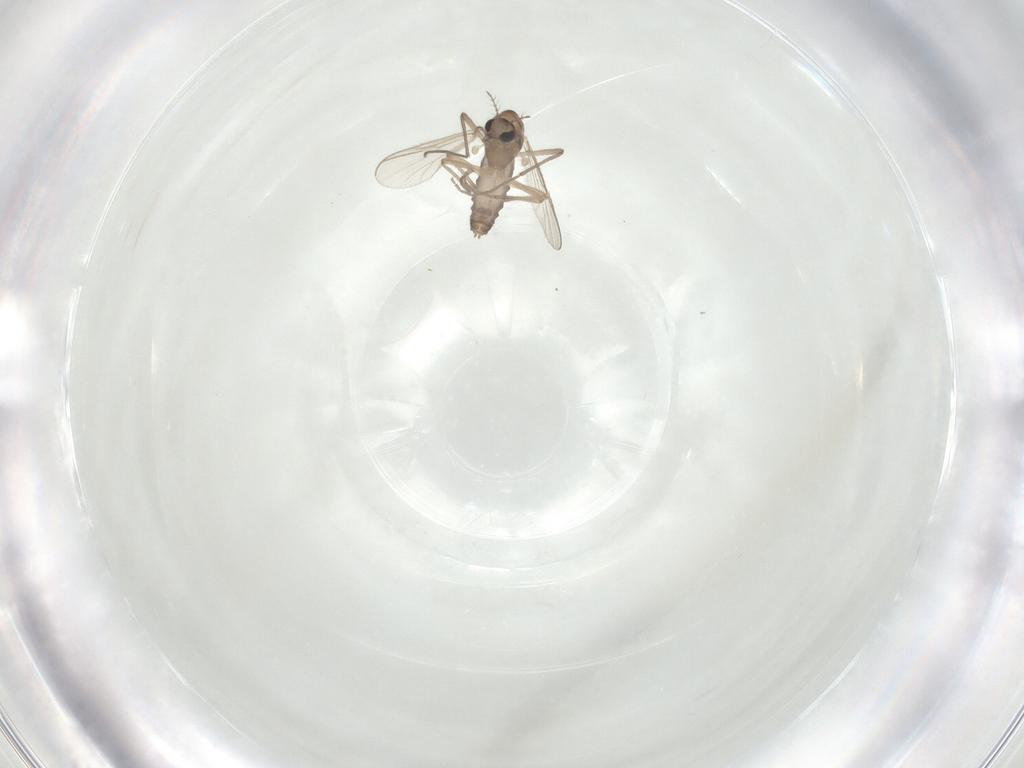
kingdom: Animalia
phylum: Arthropoda
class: Insecta
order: Diptera
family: Chironomidae
